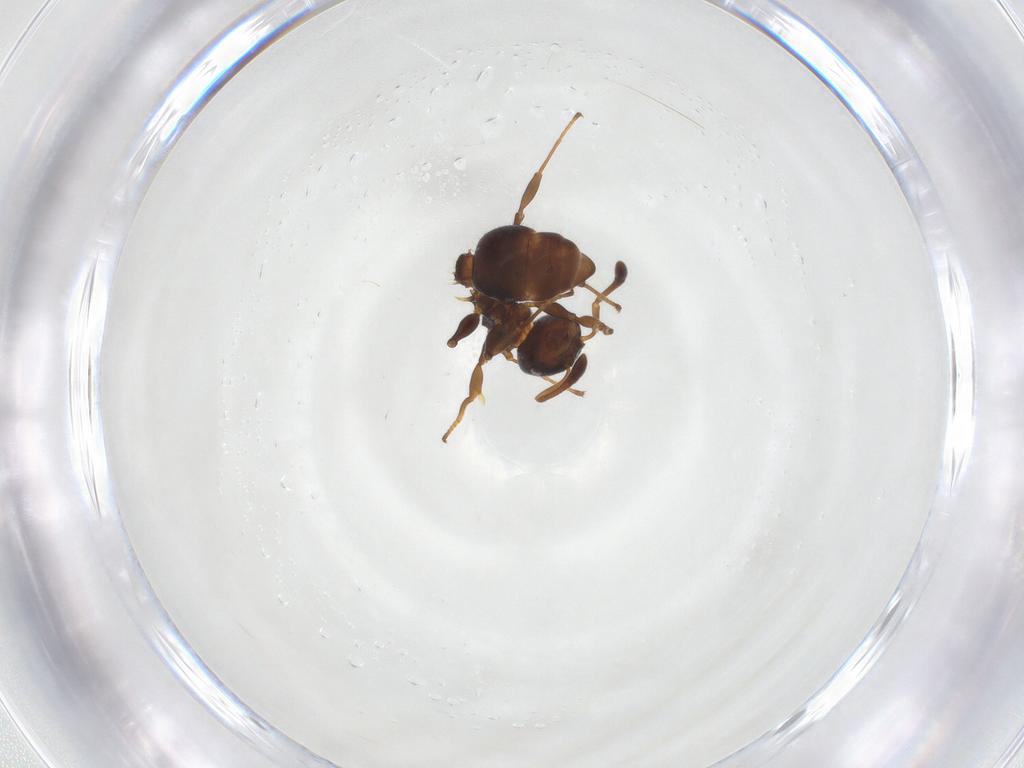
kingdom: Animalia
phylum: Arthropoda
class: Insecta
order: Hymenoptera
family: Formicidae
